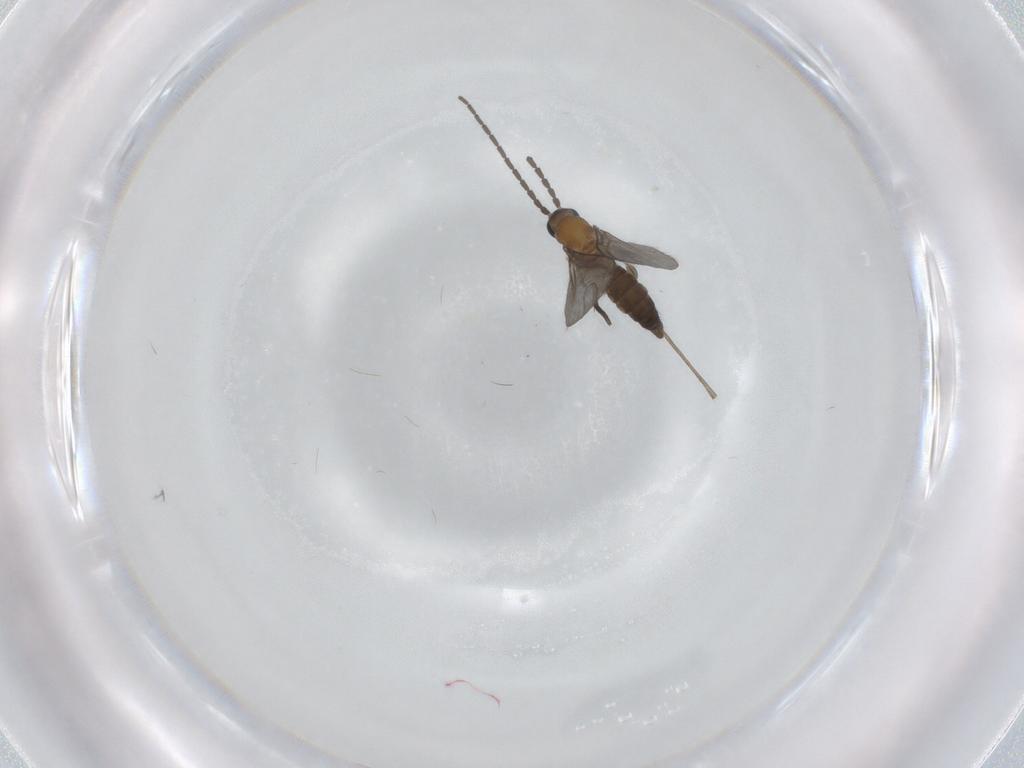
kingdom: Animalia
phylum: Arthropoda
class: Insecta
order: Diptera
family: Sciaridae
